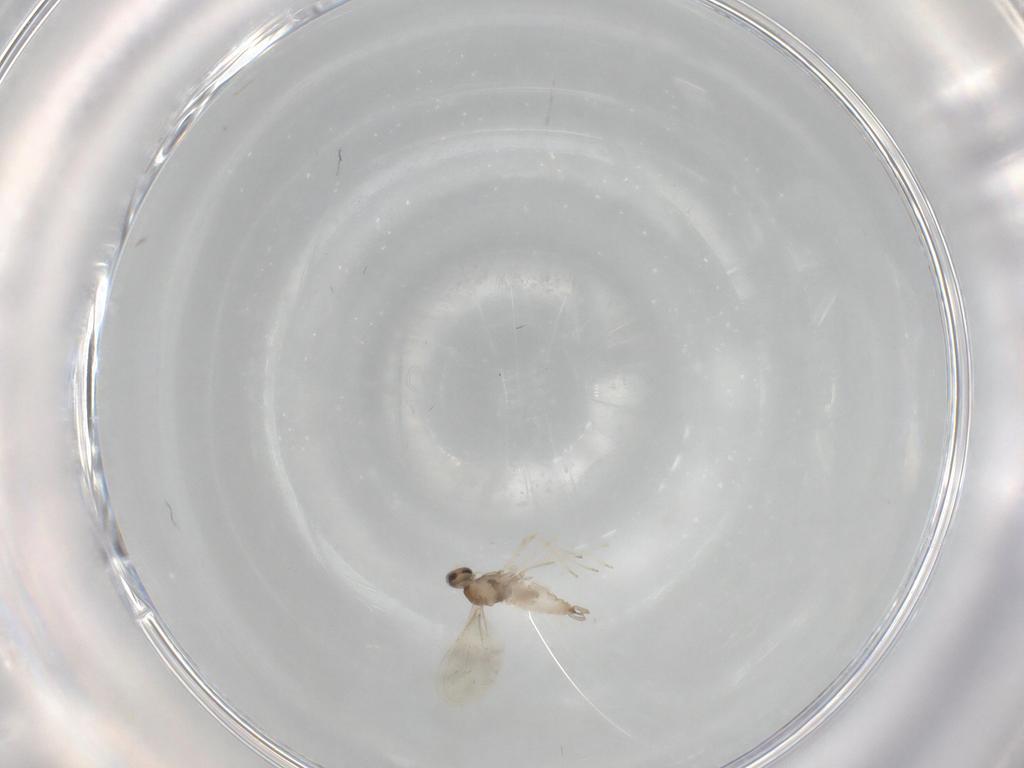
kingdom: Animalia
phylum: Arthropoda
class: Insecta
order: Diptera
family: Cecidomyiidae
